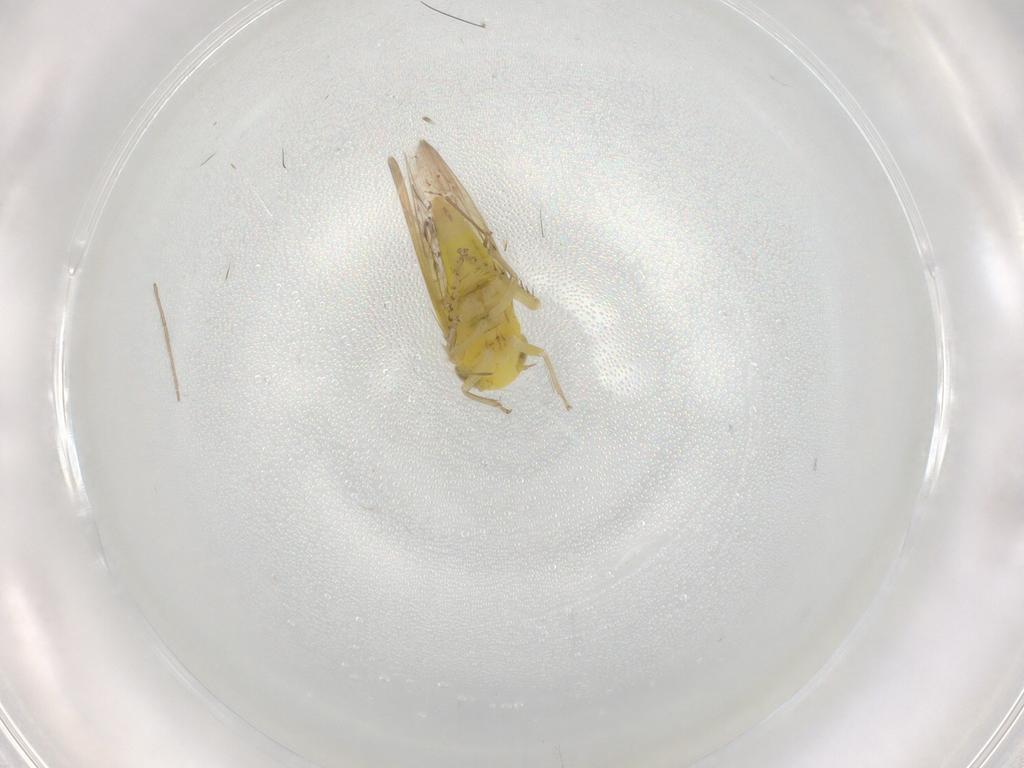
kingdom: Animalia
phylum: Arthropoda
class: Insecta
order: Hemiptera
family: Cicadellidae
